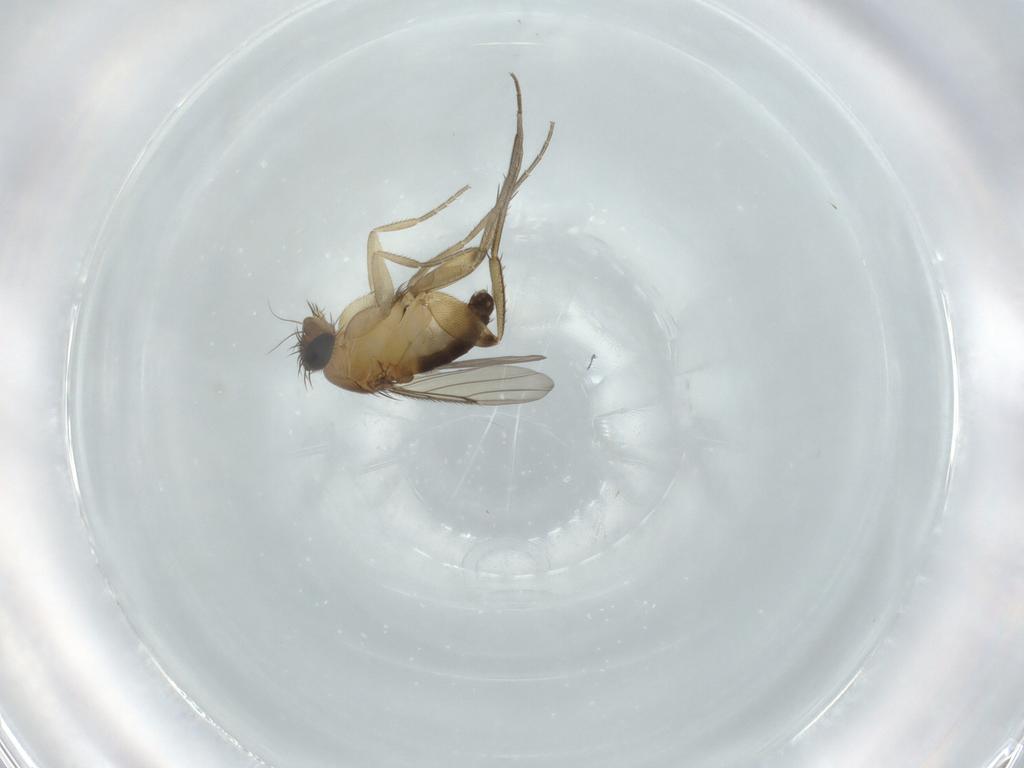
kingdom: Animalia
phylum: Arthropoda
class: Insecta
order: Diptera
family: Phoridae
